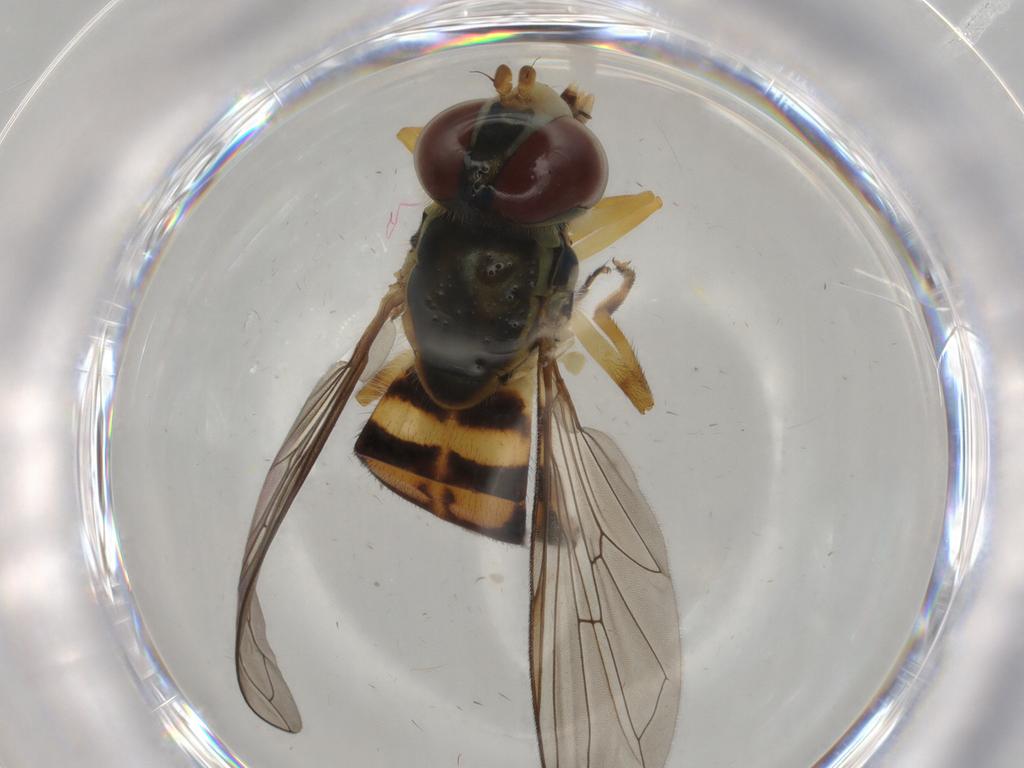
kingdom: Animalia
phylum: Arthropoda
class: Insecta
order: Diptera
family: Syrphidae
